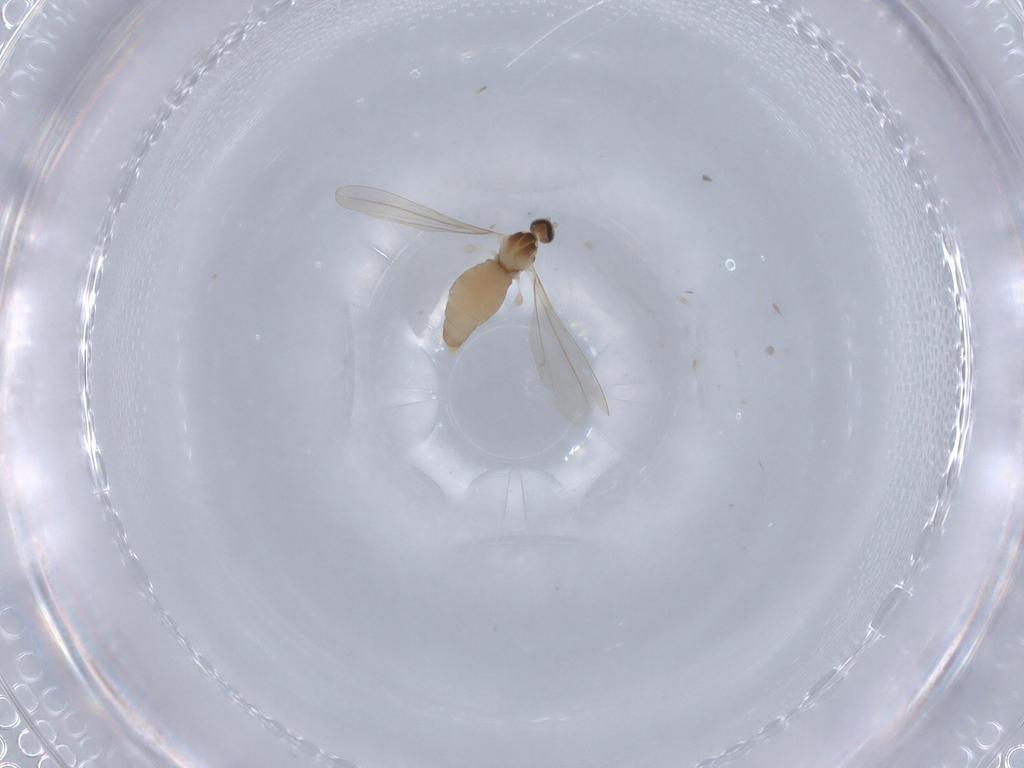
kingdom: Animalia
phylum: Arthropoda
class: Insecta
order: Diptera
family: Cecidomyiidae
